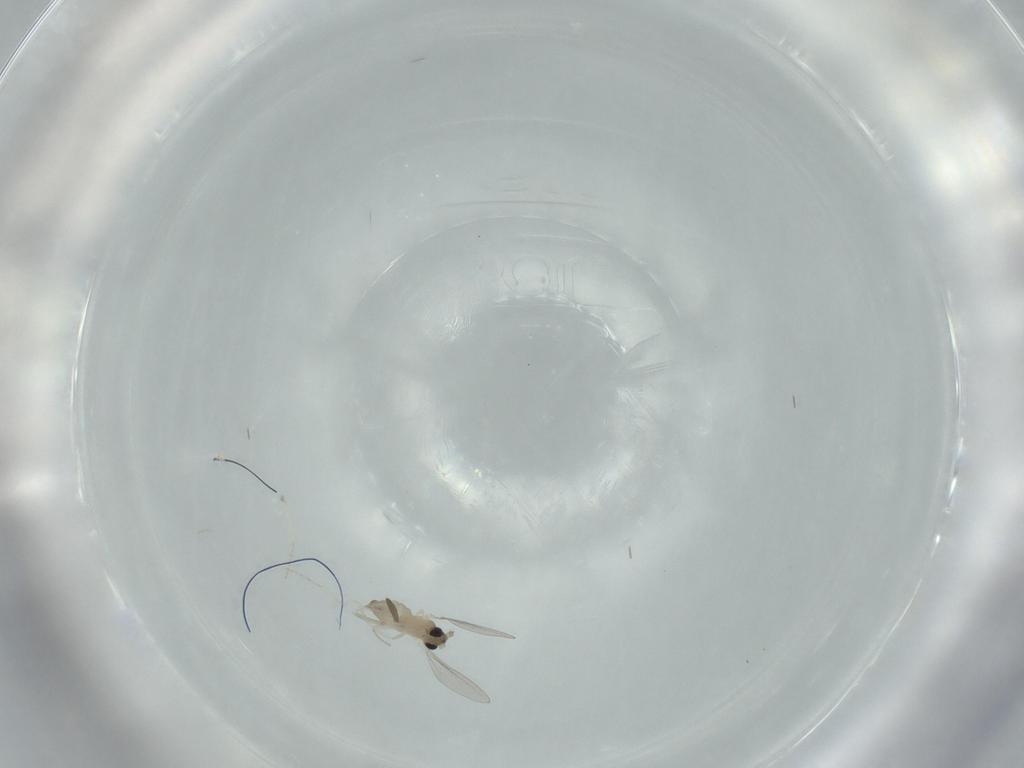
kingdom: Animalia
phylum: Arthropoda
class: Insecta
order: Diptera
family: Cecidomyiidae
